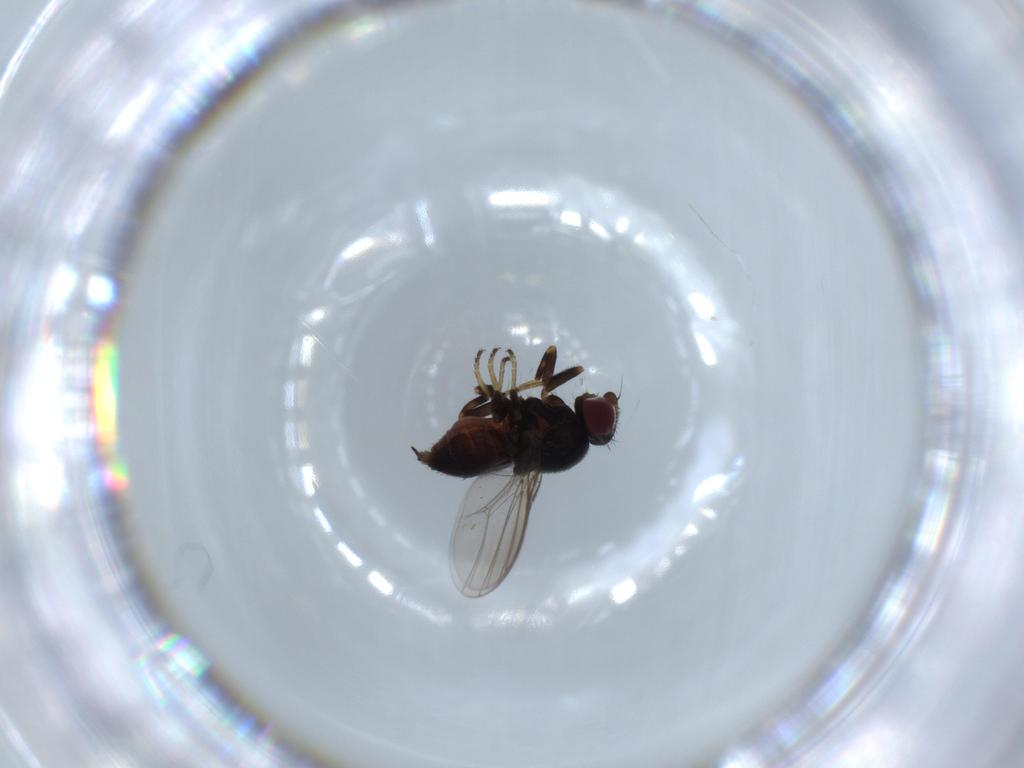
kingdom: Animalia
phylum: Arthropoda
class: Insecta
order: Diptera
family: Chloropidae
